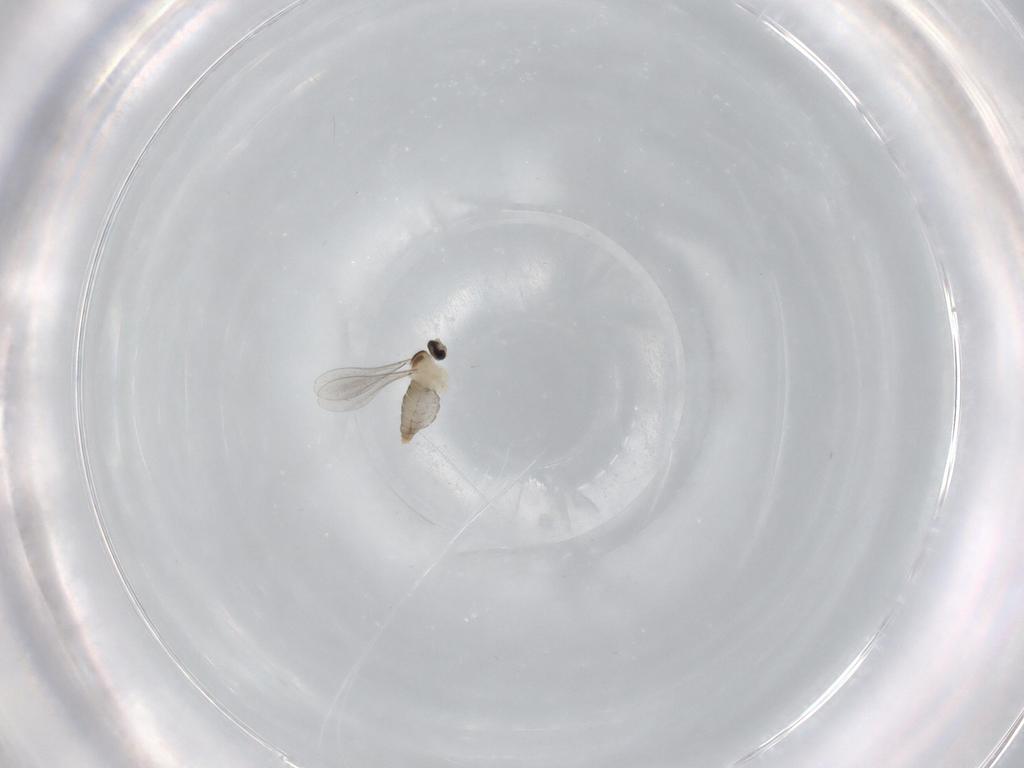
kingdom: Animalia
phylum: Arthropoda
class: Insecta
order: Diptera
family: Cecidomyiidae
